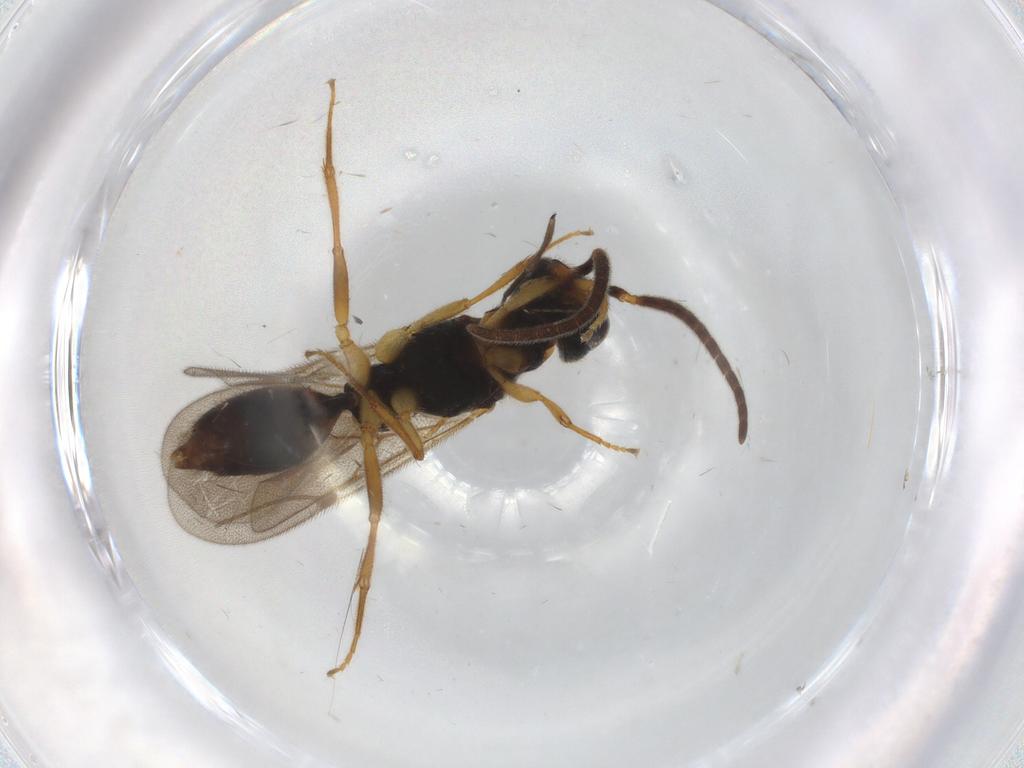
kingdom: Animalia
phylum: Arthropoda
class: Insecta
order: Hymenoptera
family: Bethylidae
